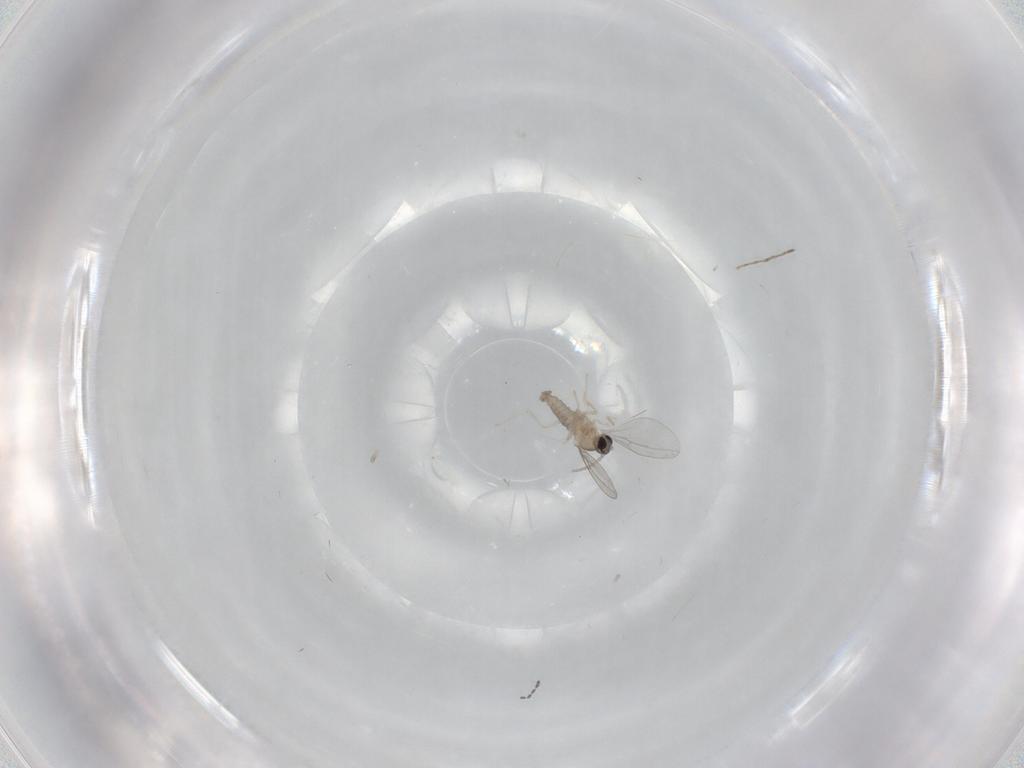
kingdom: Animalia
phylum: Arthropoda
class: Insecta
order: Diptera
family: Cecidomyiidae
